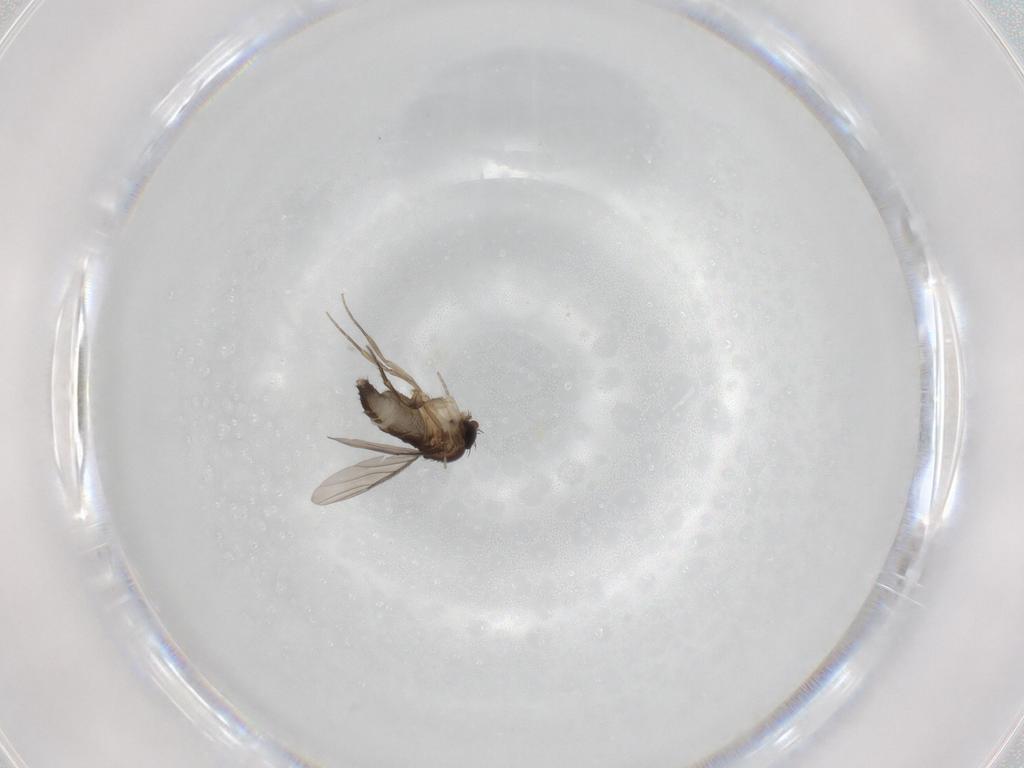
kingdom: Animalia
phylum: Arthropoda
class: Insecta
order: Diptera
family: Phoridae
